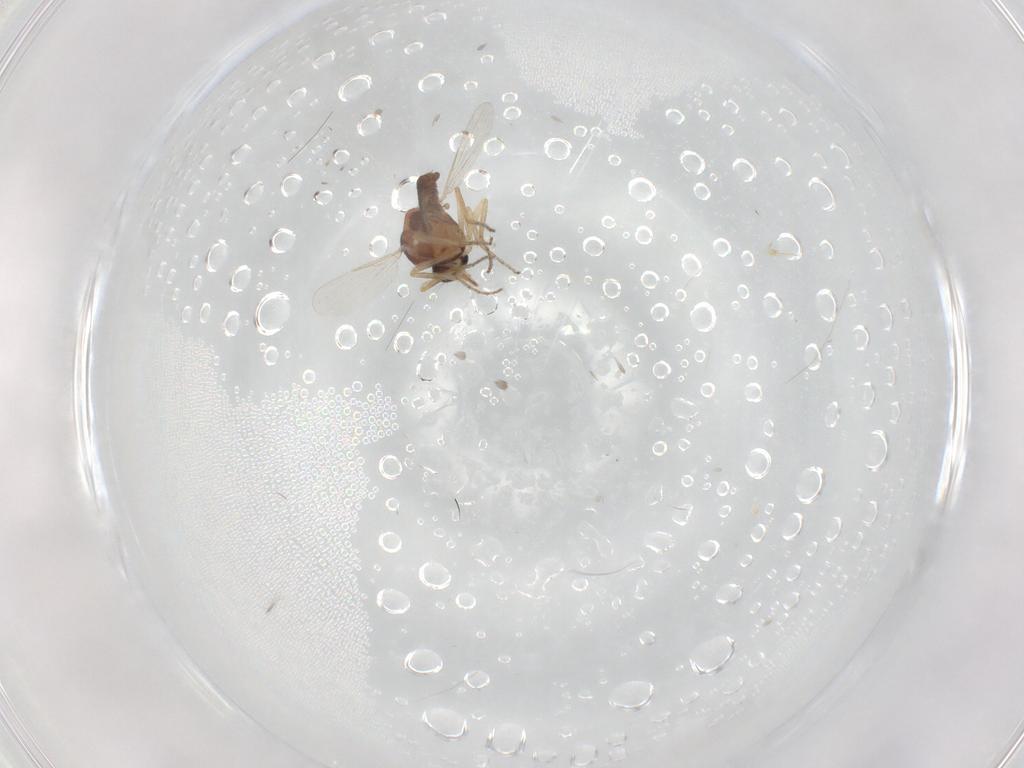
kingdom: Animalia
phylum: Arthropoda
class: Insecta
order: Diptera
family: Ceratopogonidae
